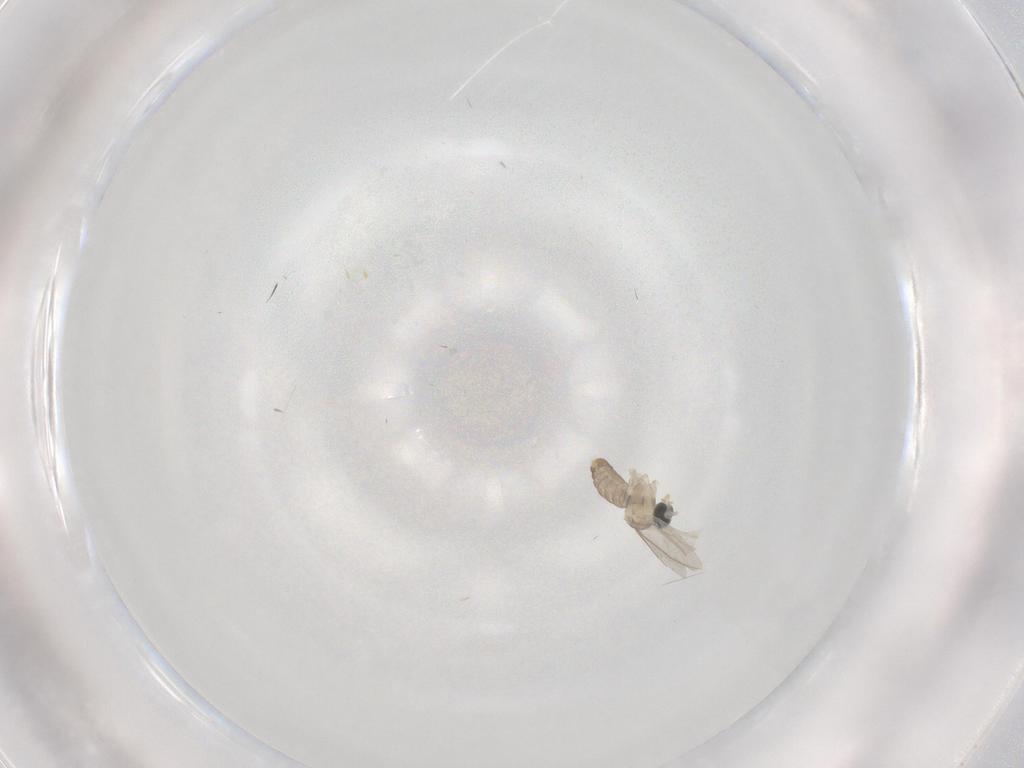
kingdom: Animalia
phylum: Arthropoda
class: Insecta
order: Diptera
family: Cecidomyiidae
